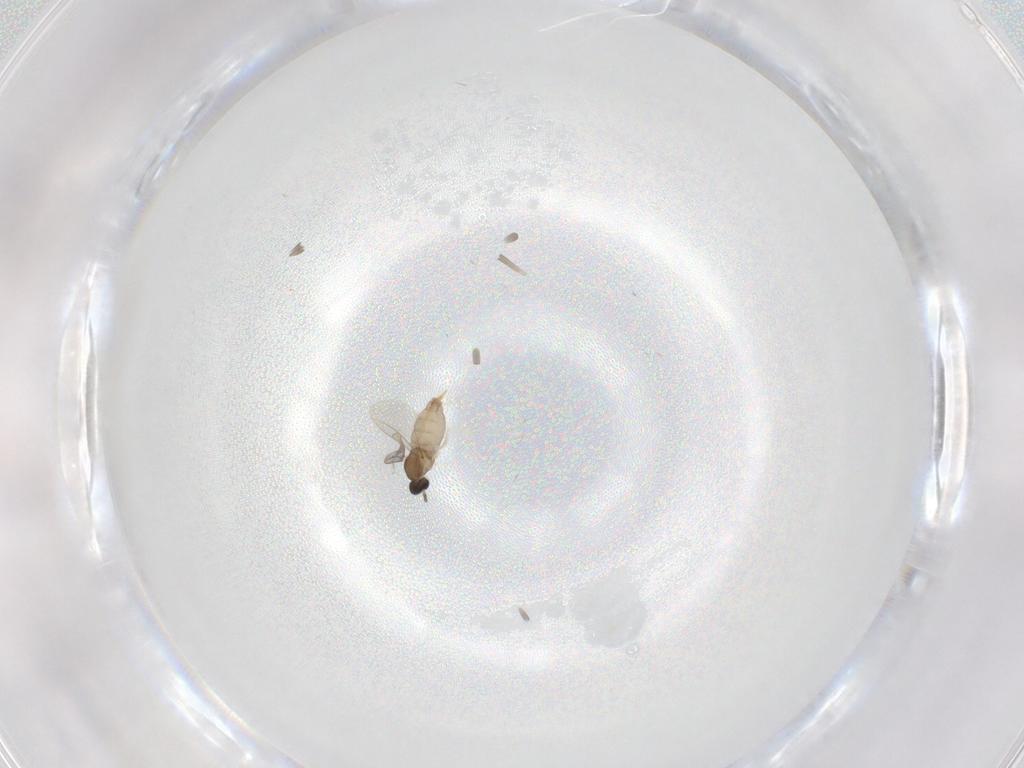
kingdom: Animalia
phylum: Arthropoda
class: Insecta
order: Diptera
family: Cecidomyiidae
